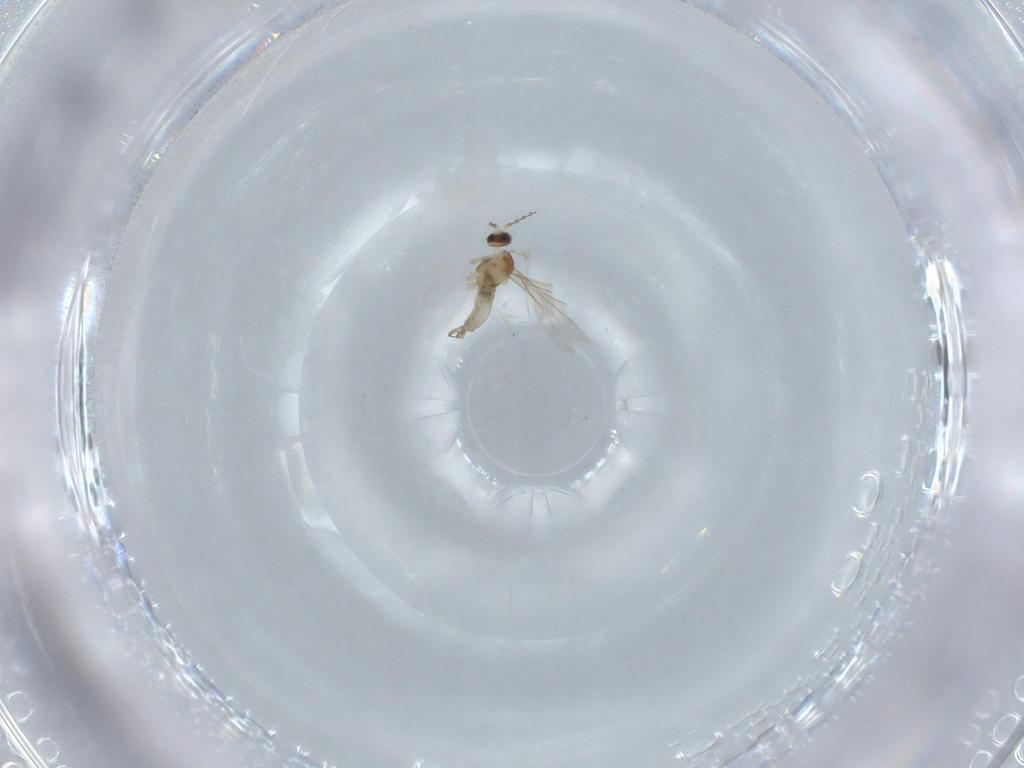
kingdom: Animalia
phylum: Arthropoda
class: Insecta
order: Diptera
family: Cecidomyiidae
